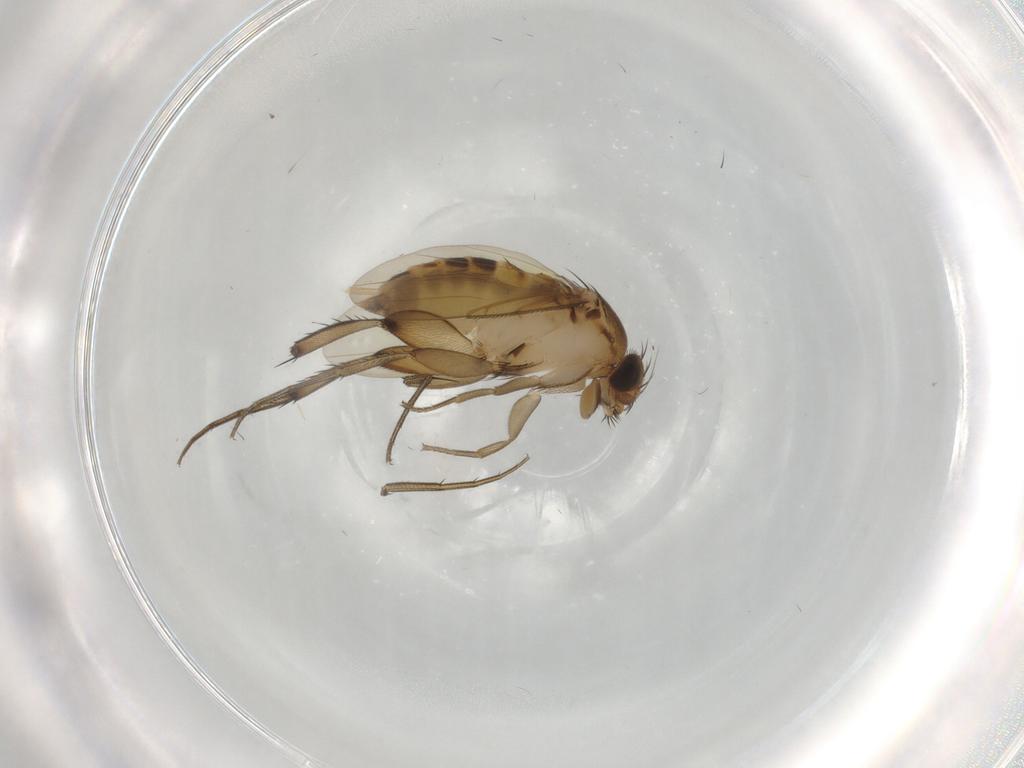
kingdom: Animalia
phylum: Arthropoda
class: Insecta
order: Diptera
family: Phoridae
